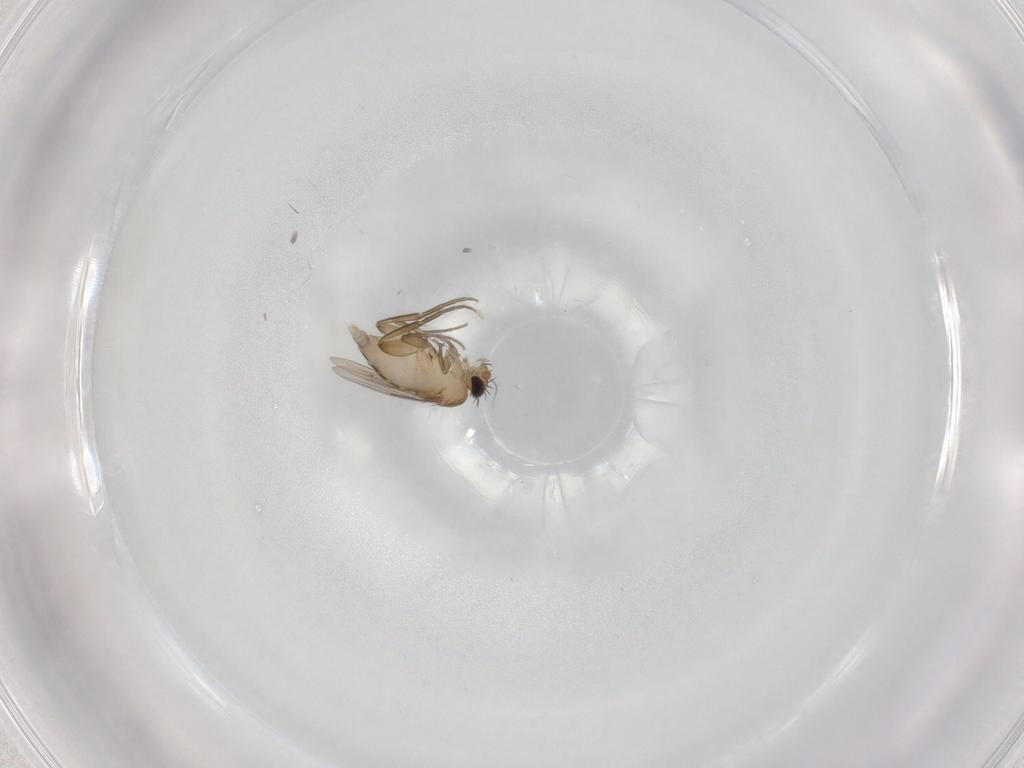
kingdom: Animalia
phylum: Arthropoda
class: Insecta
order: Diptera
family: Cecidomyiidae
